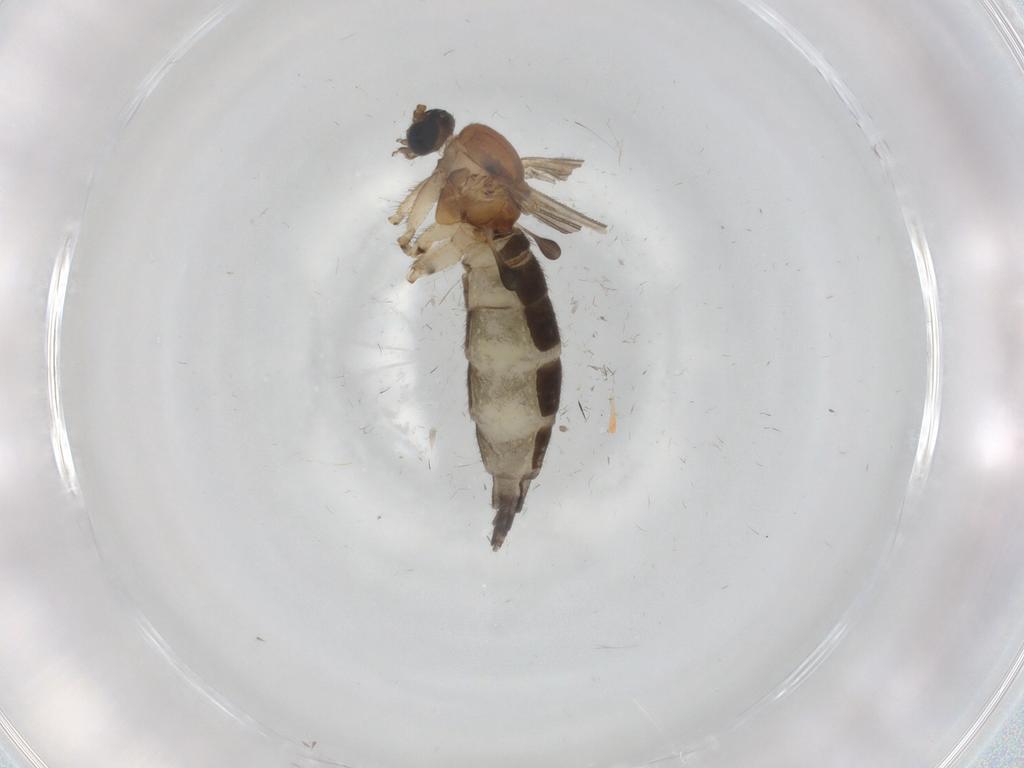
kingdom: Animalia
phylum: Arthropoda
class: Insecta
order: Diptera
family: Sciaridae
